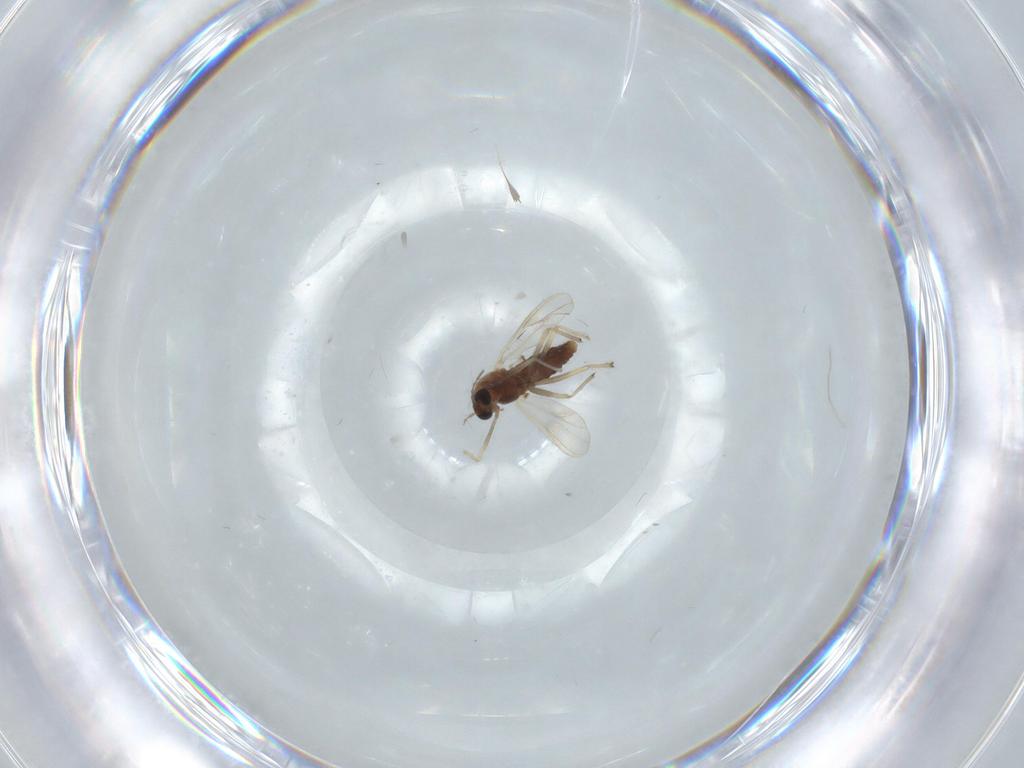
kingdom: Animalia
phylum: Arthropoda
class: Insecta
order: Diptera
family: Chironomidae
